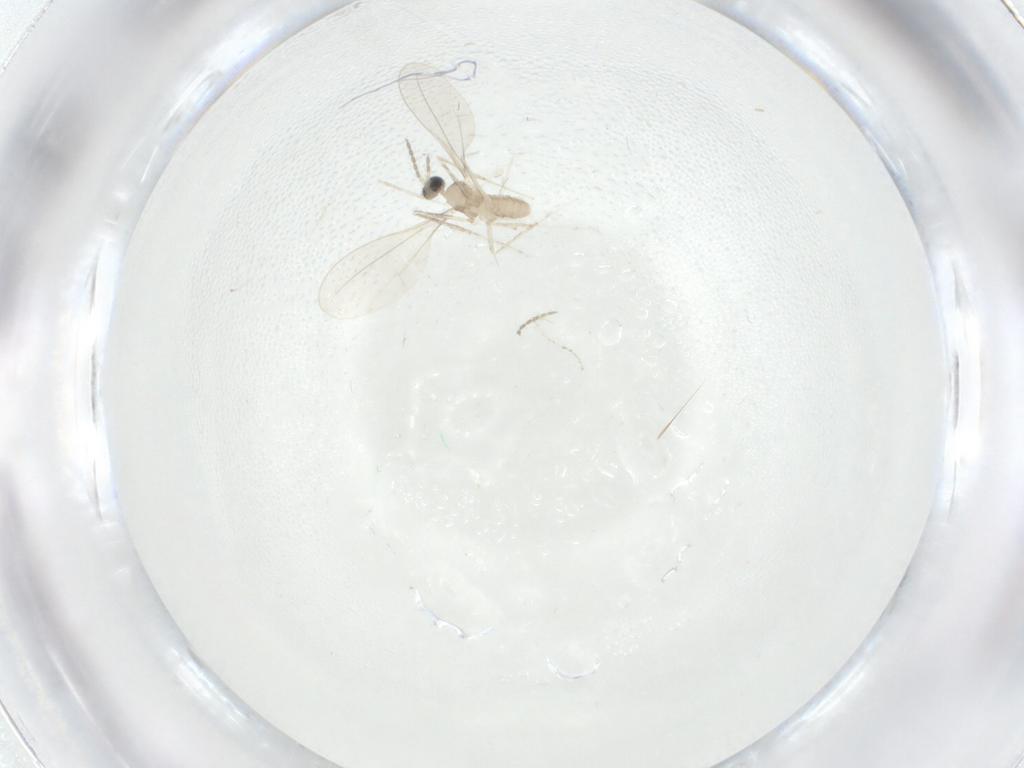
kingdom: Animalia
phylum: Arthropoda
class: Insecta
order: Diptera
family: Cecidomyiidae
